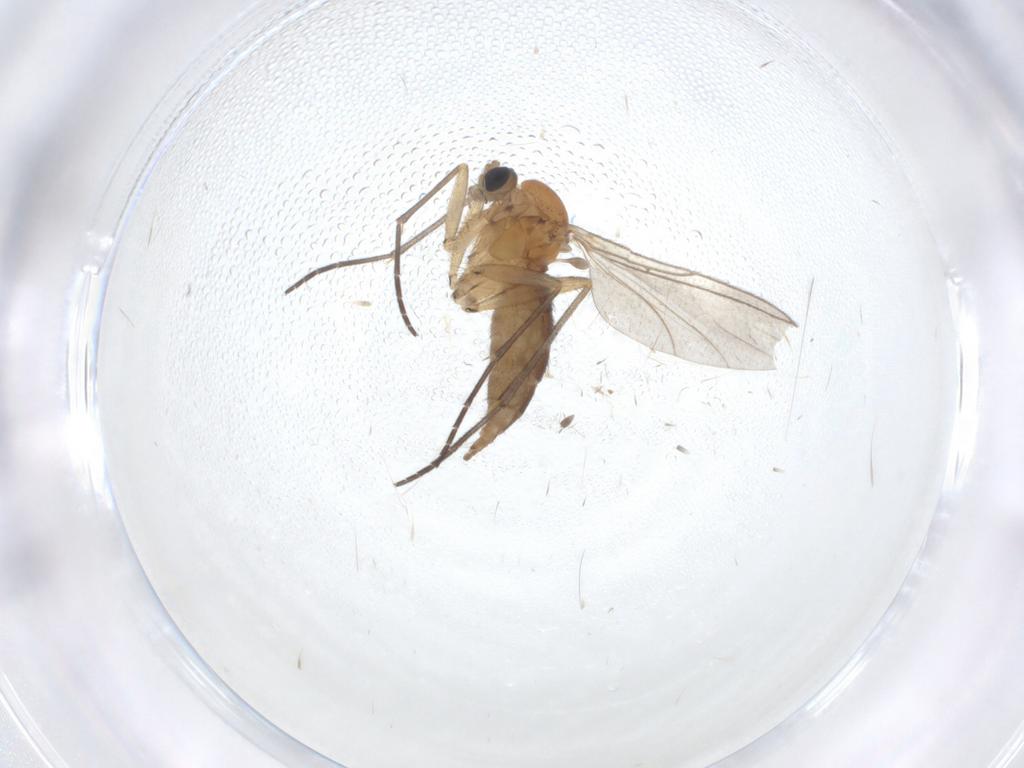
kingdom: Animalia
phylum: Arthropoda
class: Insecta
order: Diptera
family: Sciaridae
